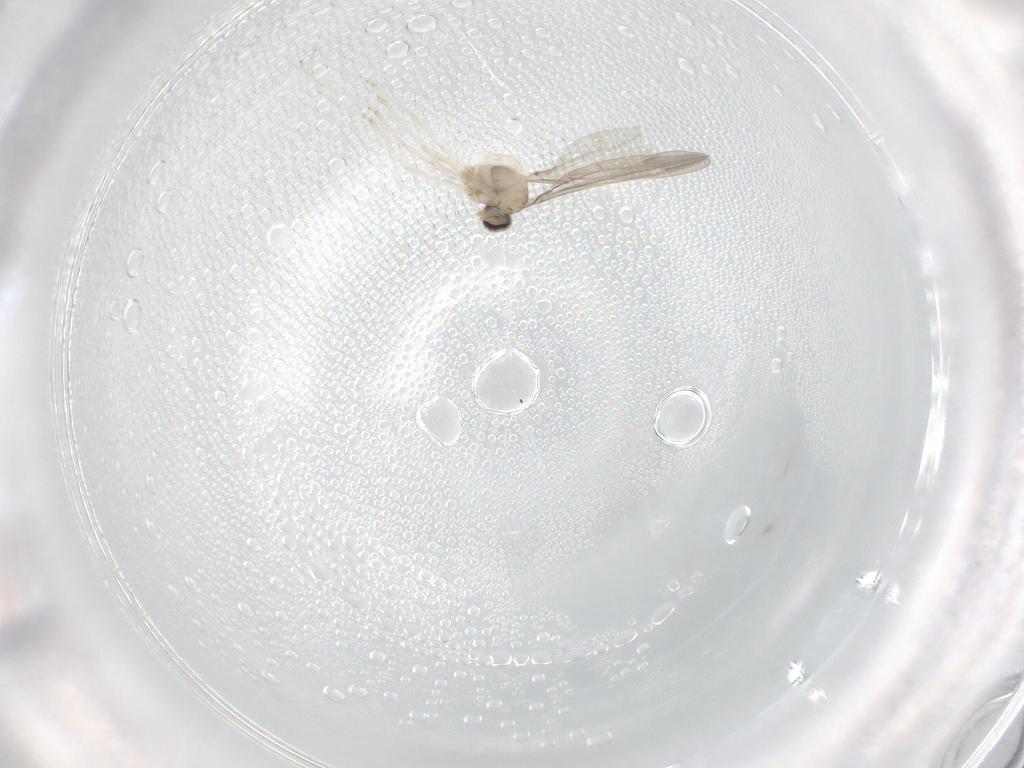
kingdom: Animalia
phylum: Arthropoda
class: Insecta
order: Diptera
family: Cecidomyiidae
